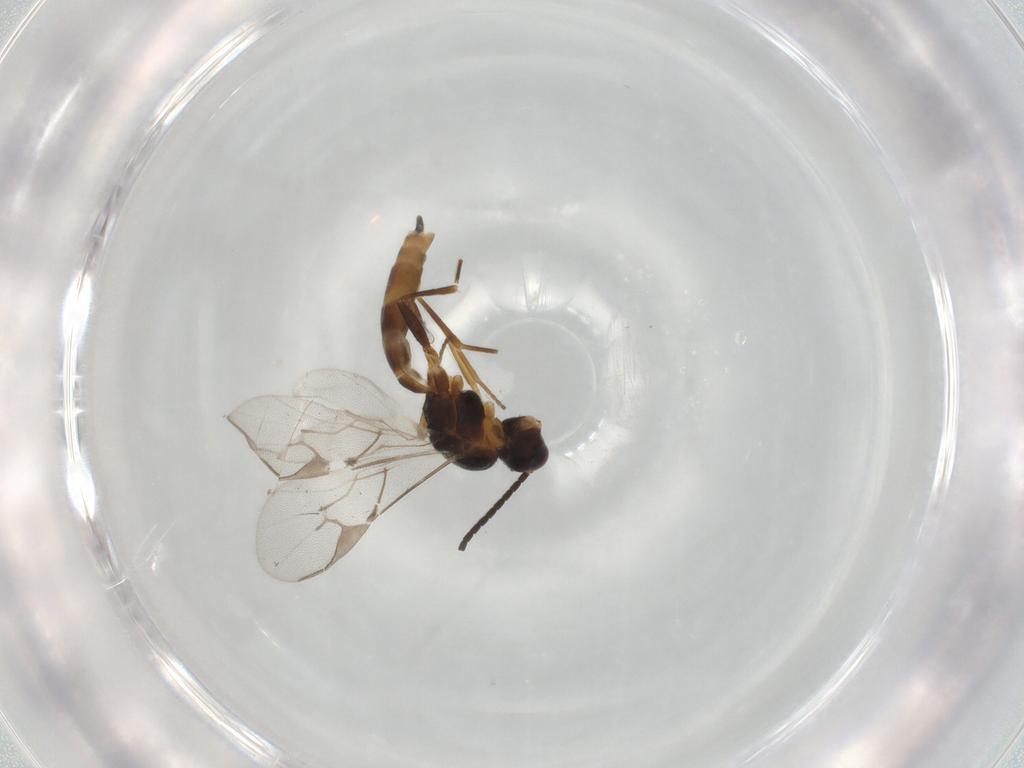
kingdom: Animalia
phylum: Arthropoda
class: Insecta
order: Hymenoptera
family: Braconidae
